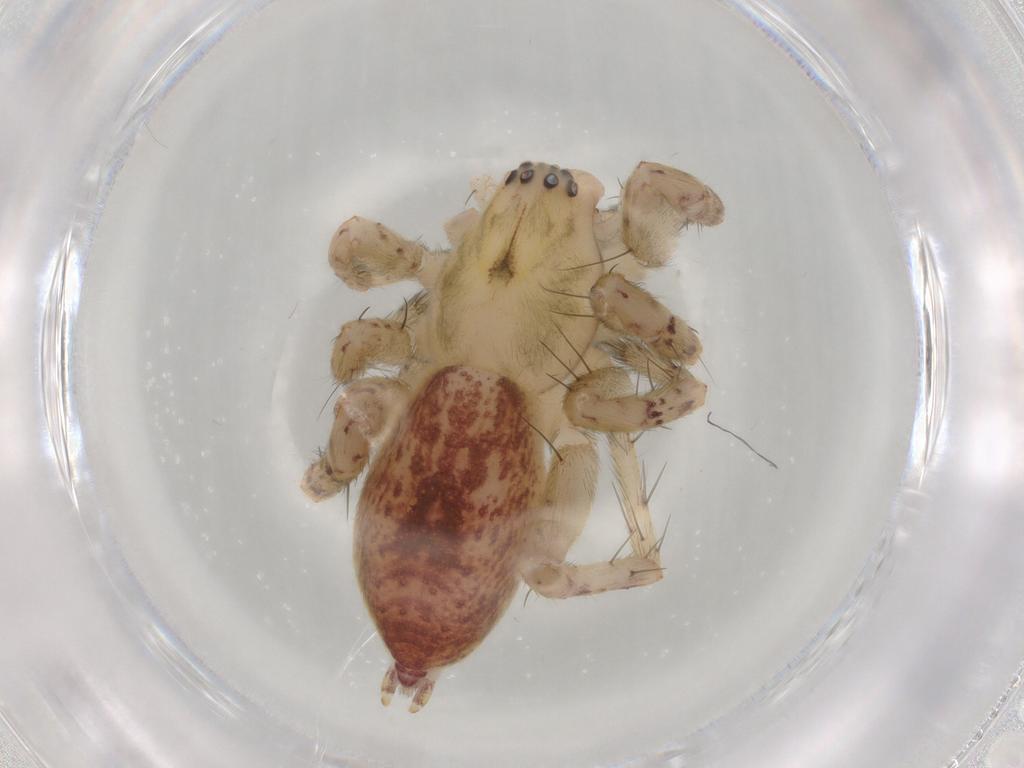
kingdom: Animalia
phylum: Arthropoda
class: Arachnida
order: Araneae
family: Anyphaenidae
